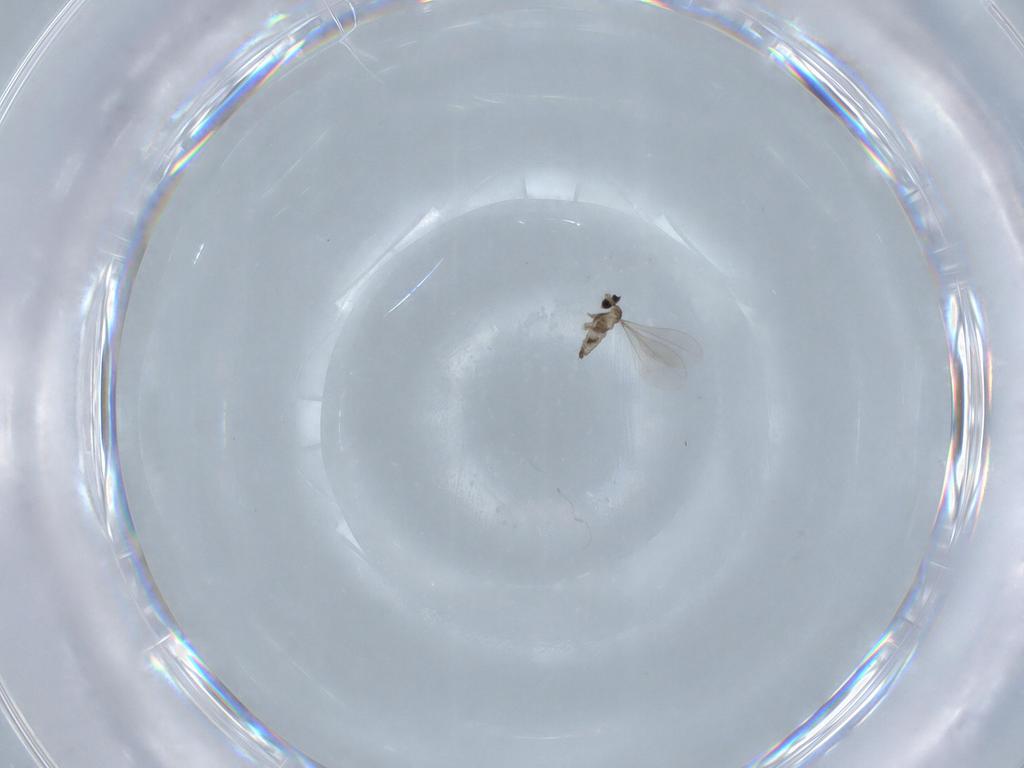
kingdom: Animalia
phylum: Arthropoda
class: Insecta
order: Diptera
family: Cecidomyiidae
